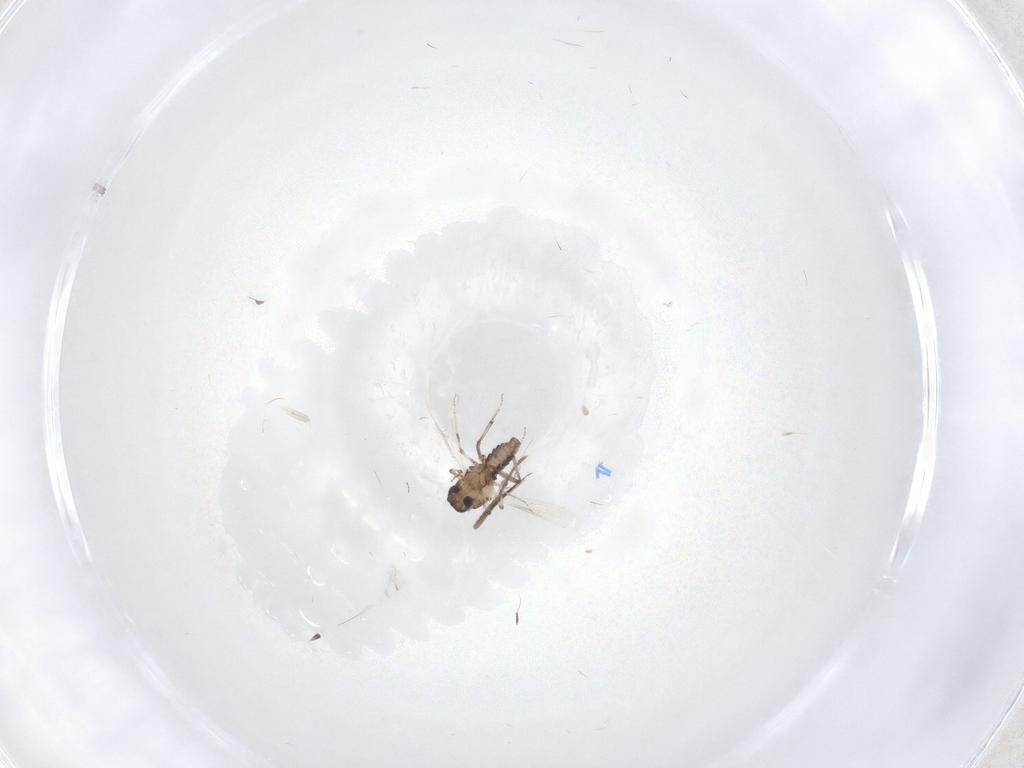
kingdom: Animalia
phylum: Arthropoda
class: Insecta
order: Diptera
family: Ceratopogonidae
